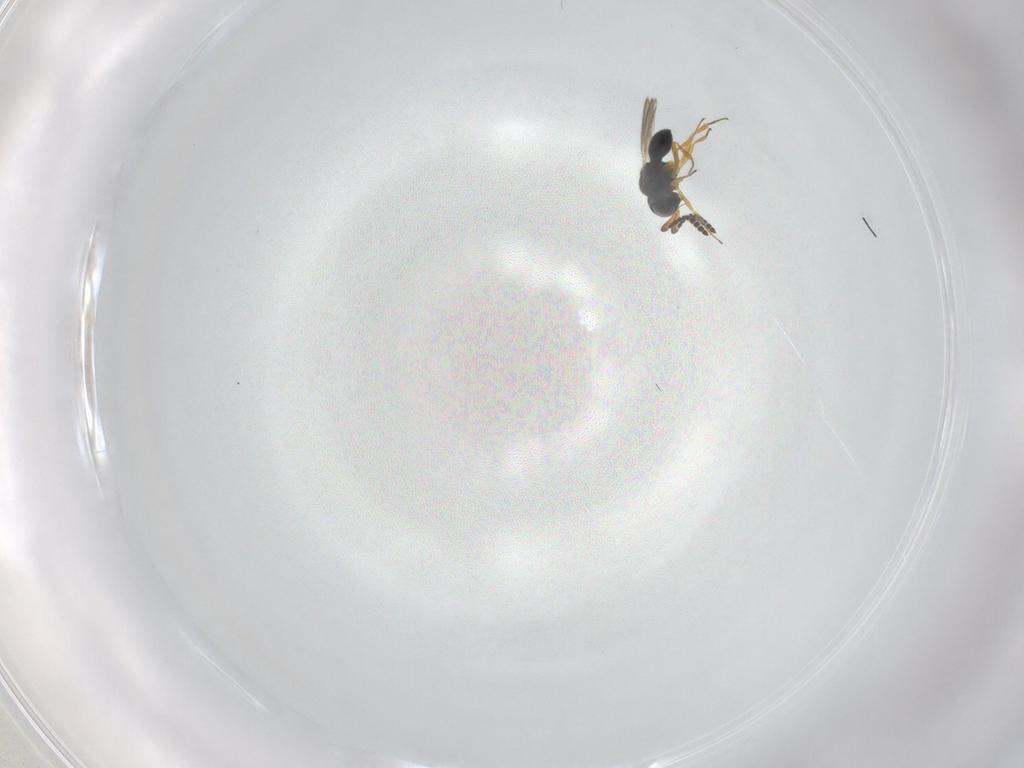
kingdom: Animalia
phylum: Arthropoda
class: Insecta
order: Hymenoptera
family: Scelionidae
